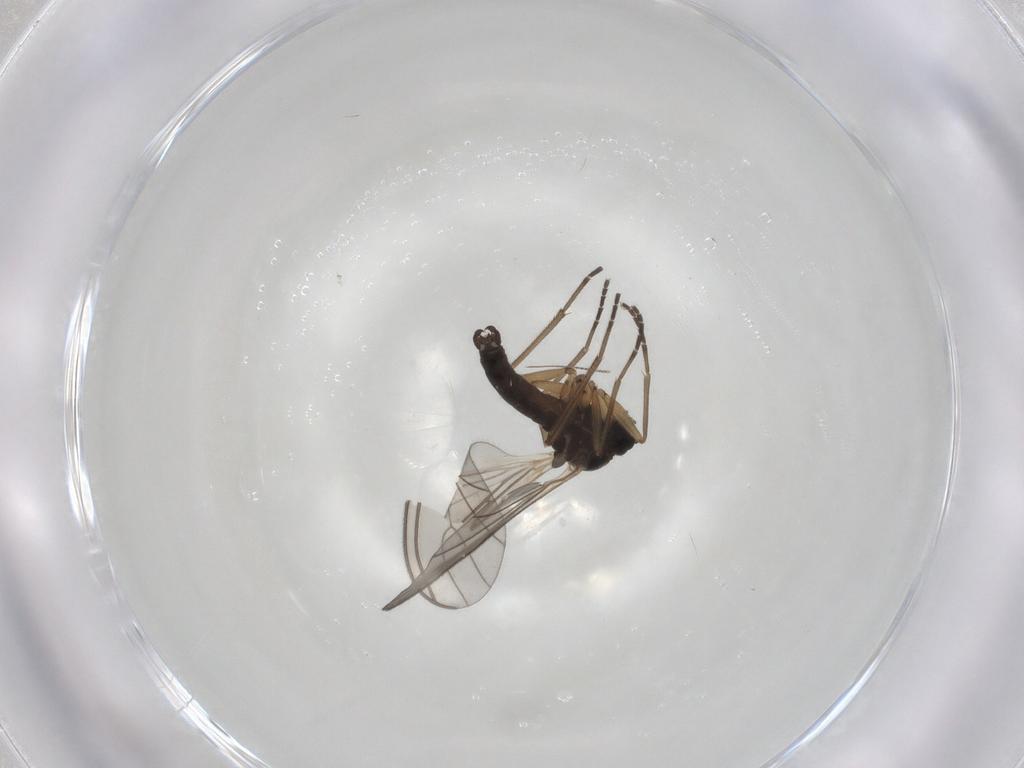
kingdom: Animalia
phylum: Arthropoda
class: Insecta
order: Diptera
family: Sciaridae
